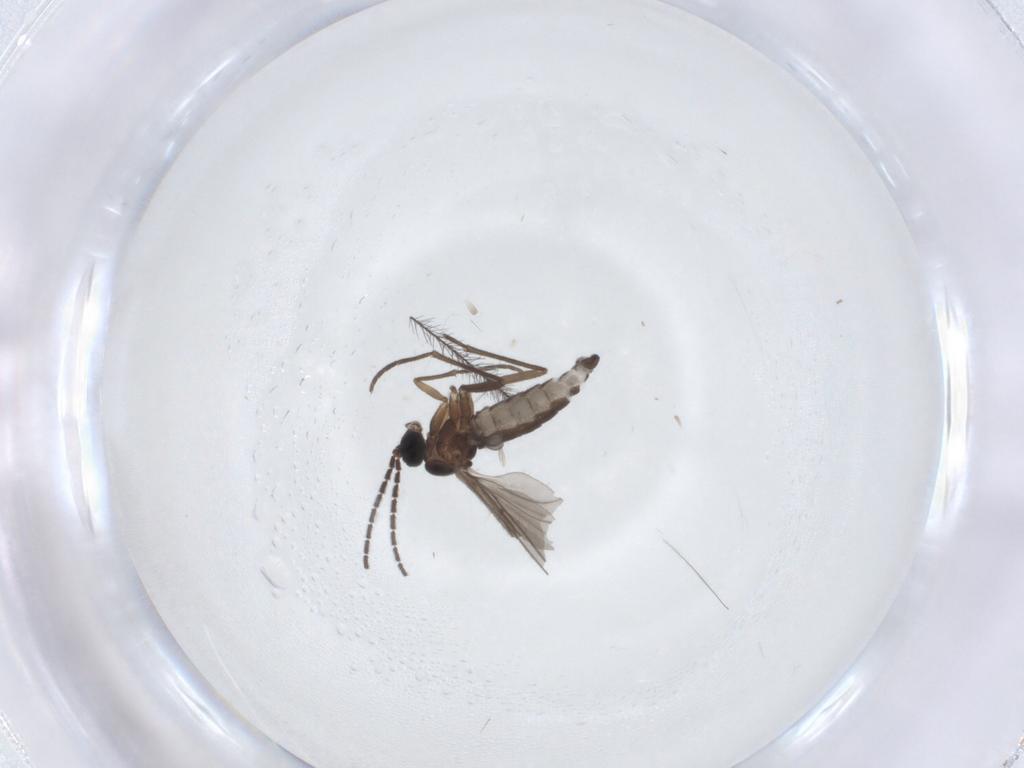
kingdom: Animalia
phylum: Arthropoda
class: Insecta
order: Diptera
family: Sciaridae
